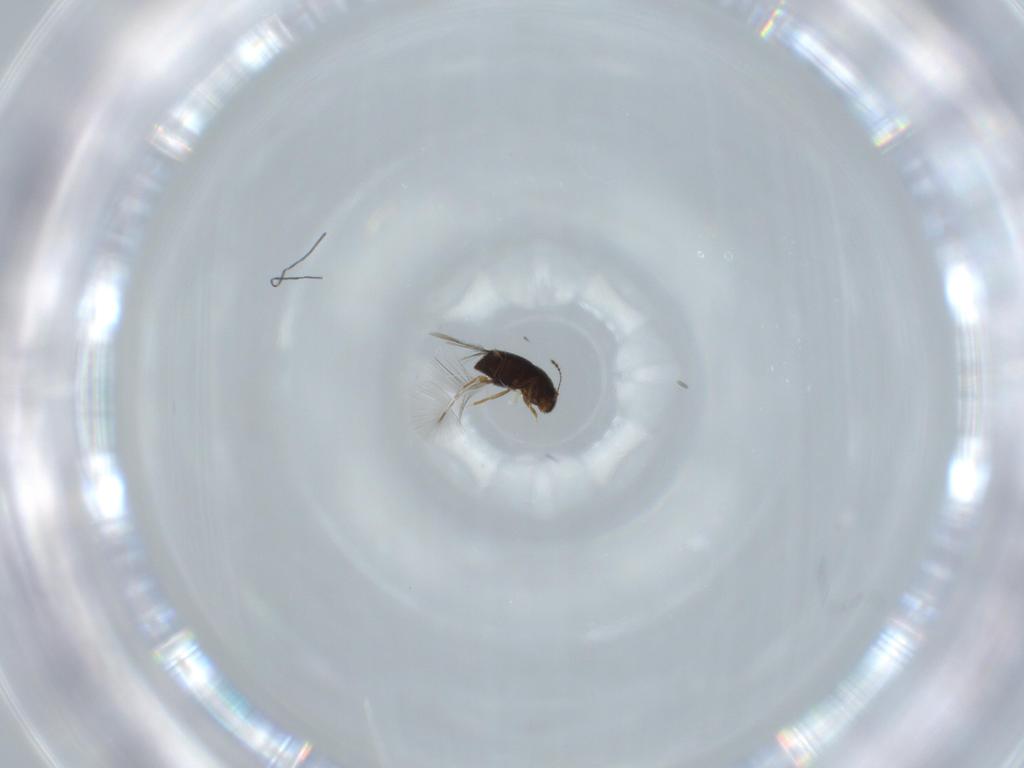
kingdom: Animalia
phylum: Arthropoda
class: Insecta
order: Coleoptera
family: Ptiliidae
